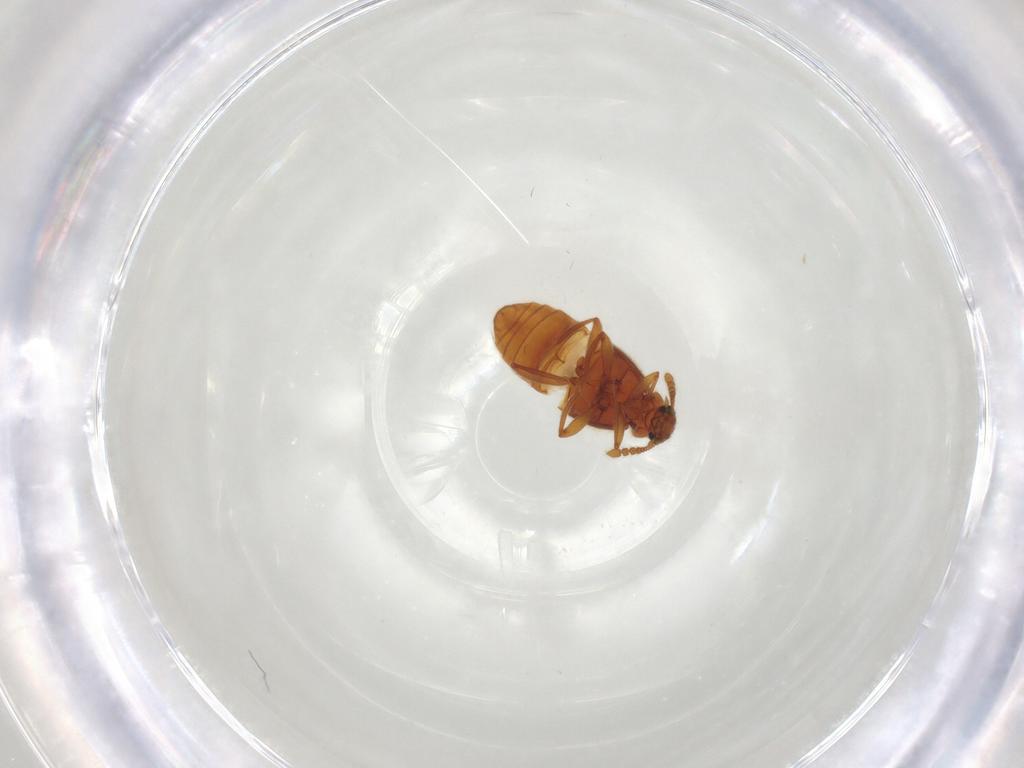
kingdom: Animalia
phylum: Arthropoda
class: Insecta
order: Coleoptera
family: Staphylinidae
